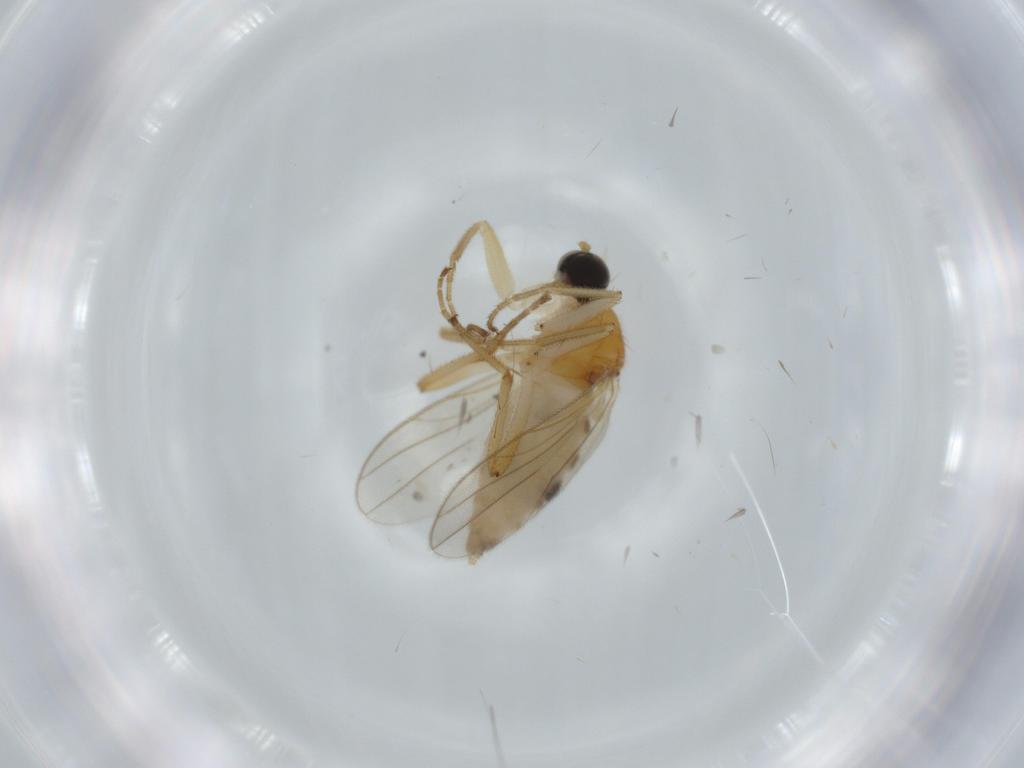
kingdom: Animalia
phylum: Arthropoda
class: Insecta
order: Diptera
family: Hybotidae
